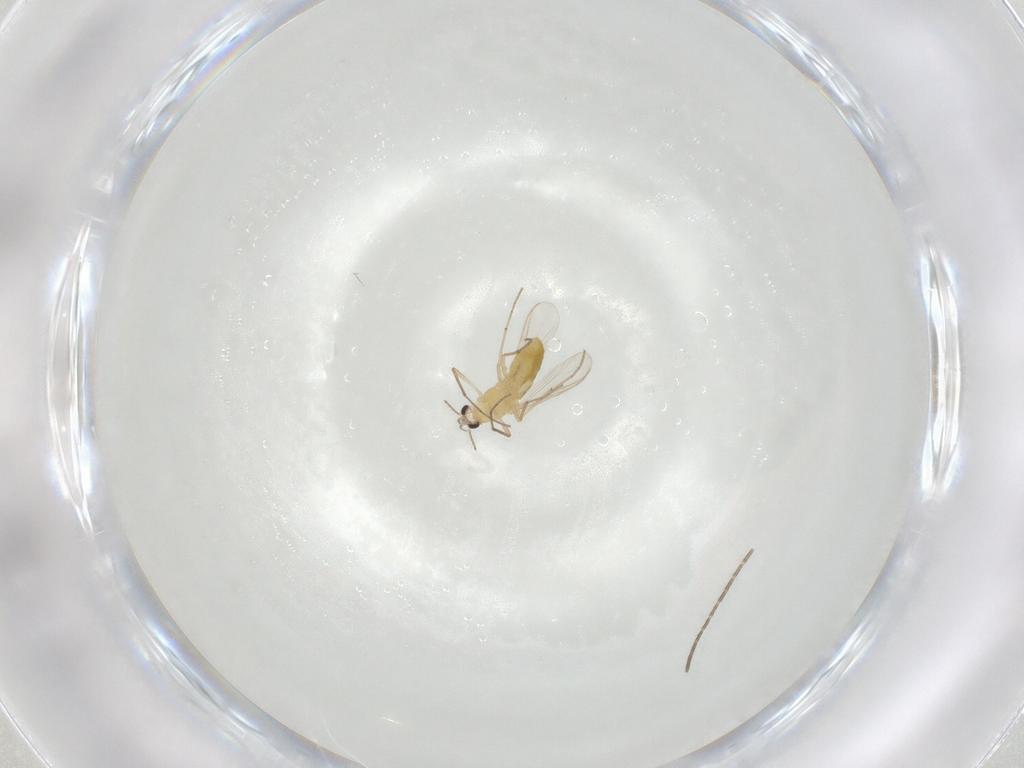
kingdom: Animalia
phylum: Arthropoda
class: Insecta
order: Diptera
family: Chironomidae
